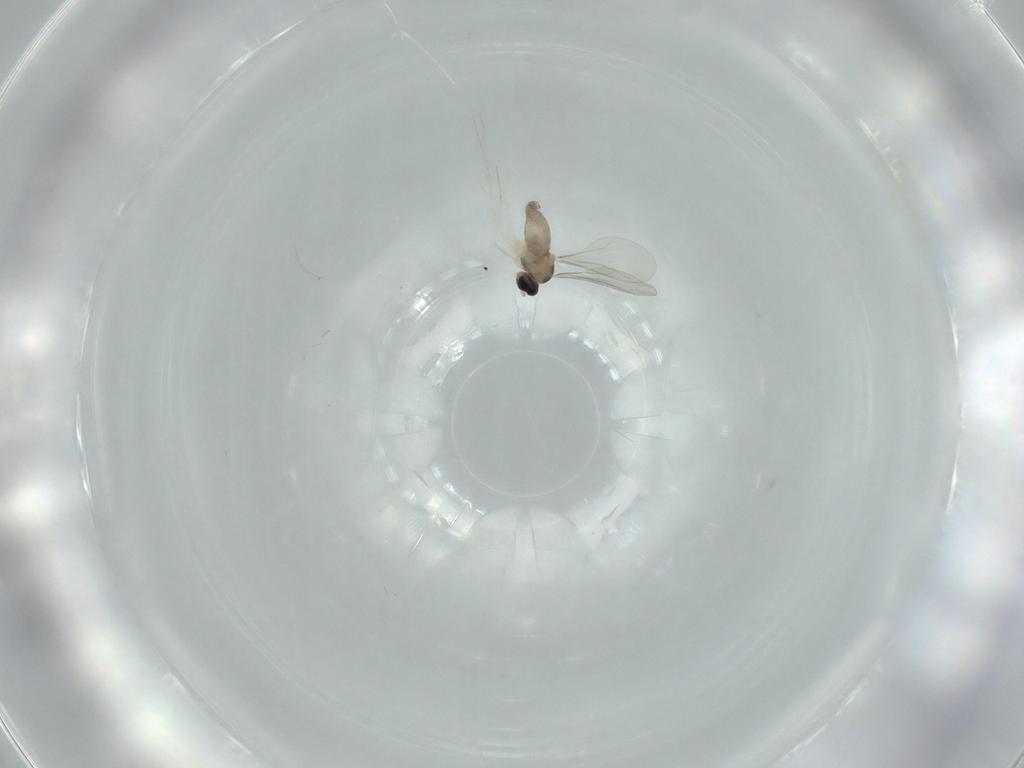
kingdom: Animalia
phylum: Arthropoda
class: Insecta
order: Diptera
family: Cecidomyiidae
